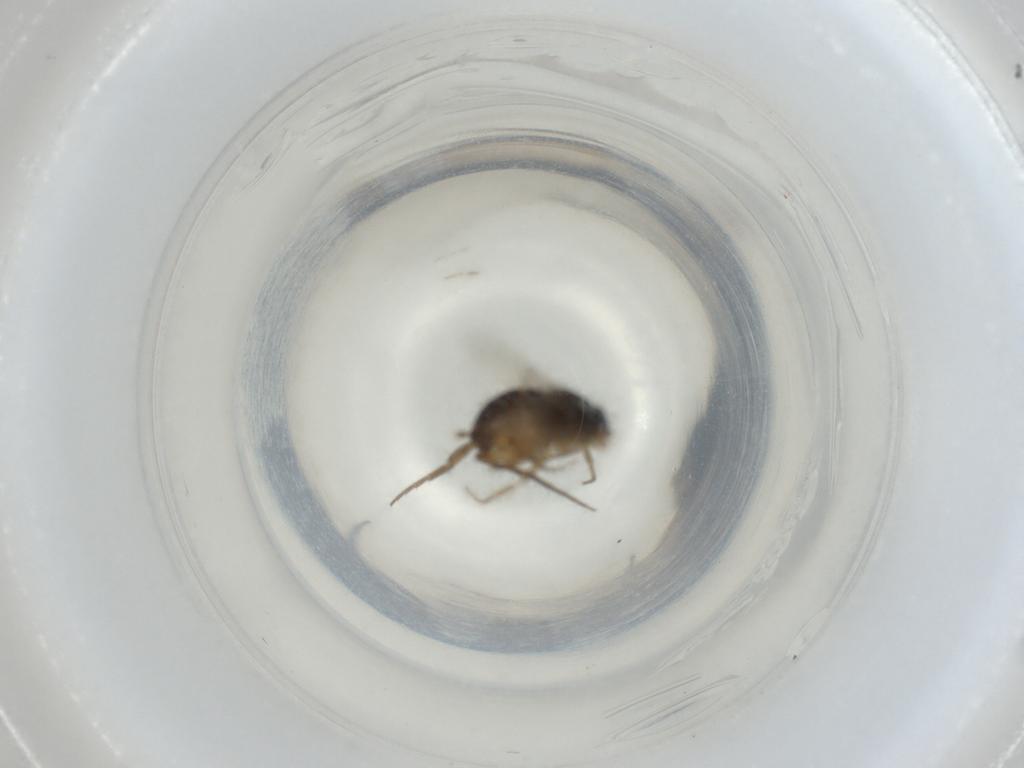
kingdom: Animalia
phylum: Arthropoda
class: Insecta
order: Diptera
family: Phoridae
